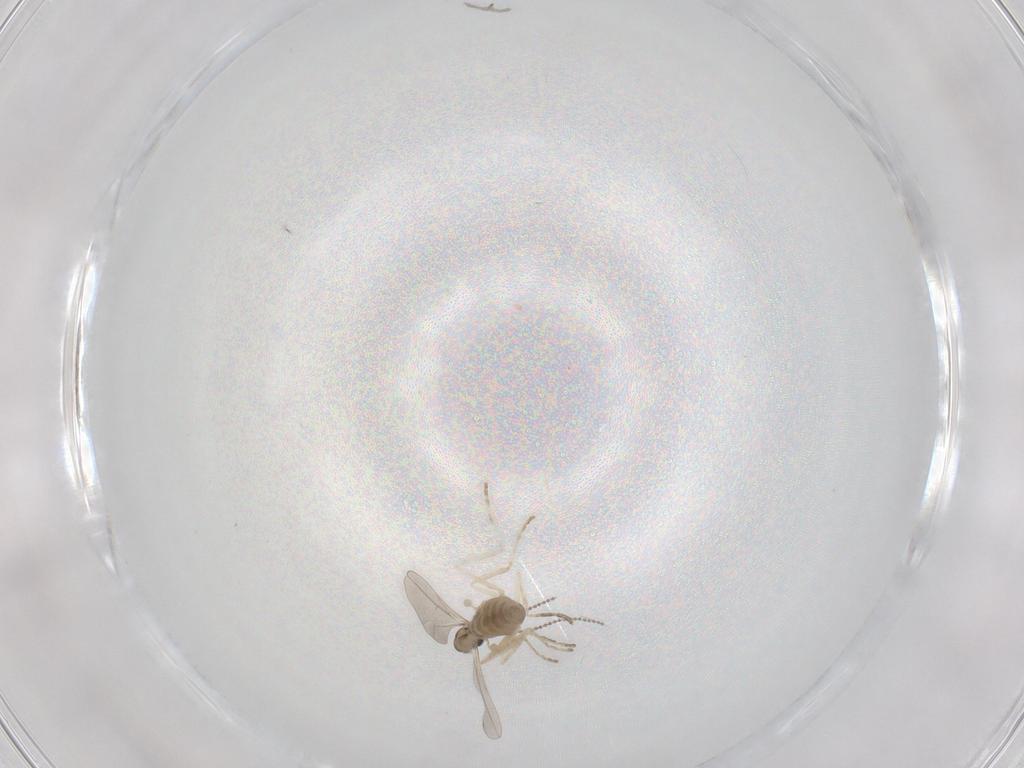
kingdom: Animalia
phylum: Arthropoda
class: Insecta
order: Diptera
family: Cecidomyiidae
